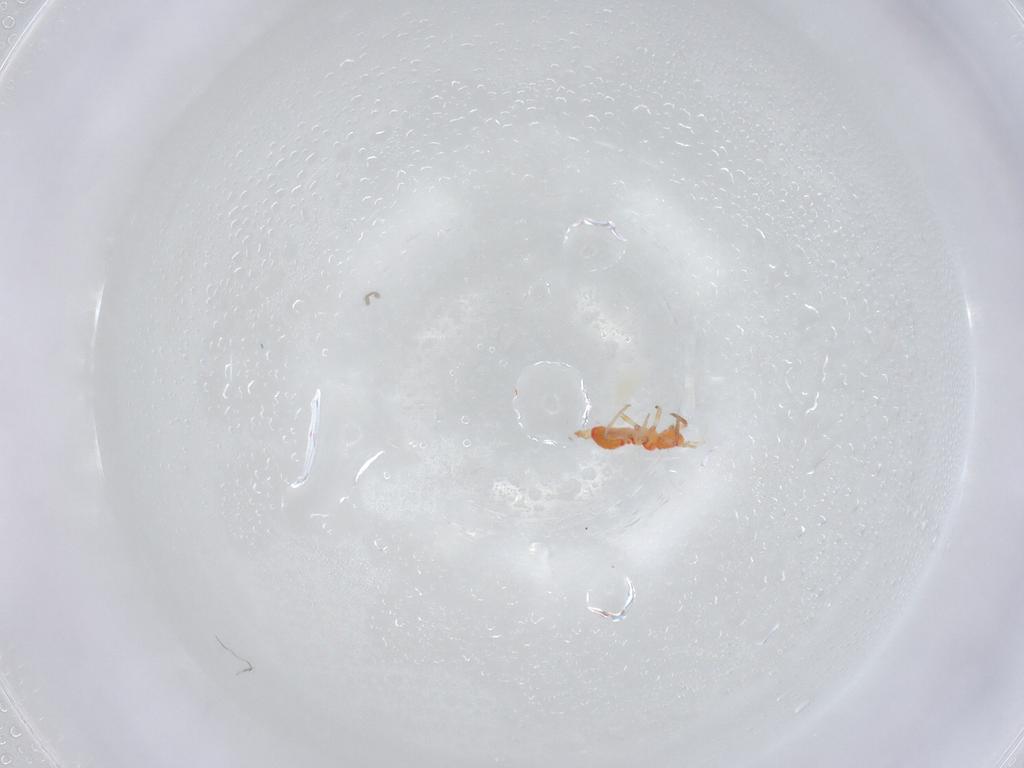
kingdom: Animalia
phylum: Arthropoda
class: Arachnida
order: Trombidiformes
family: Eupodidae
